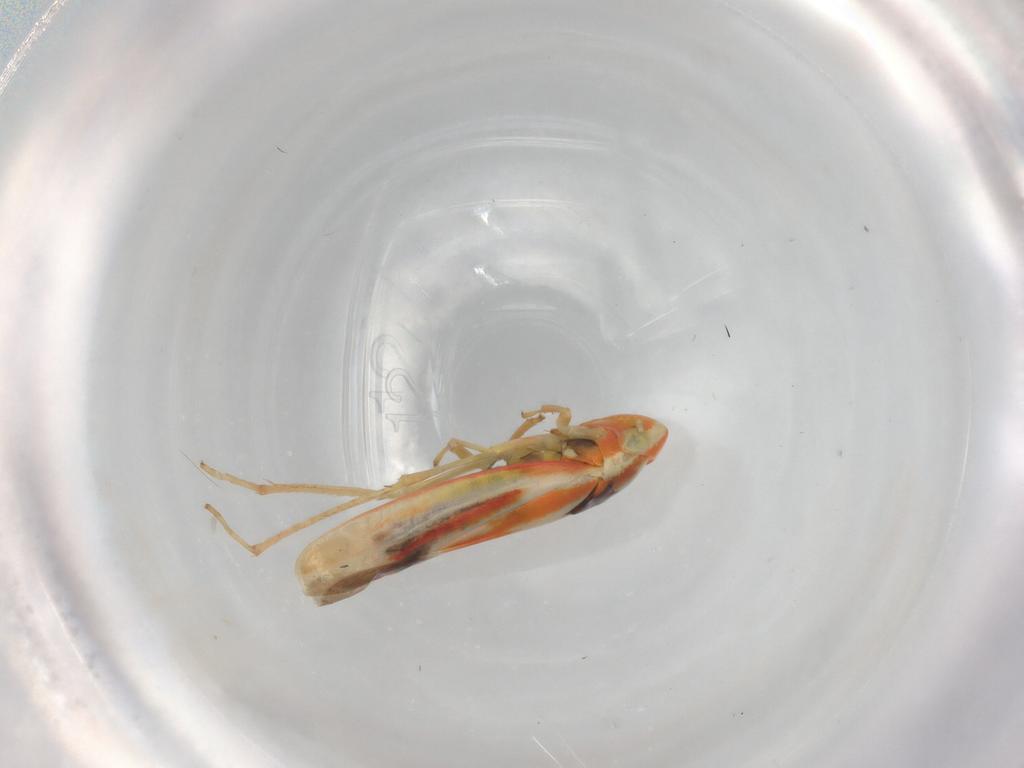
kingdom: Animalia
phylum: Arthropoda
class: Insecta
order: Hemiptera
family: Cicadellidae
